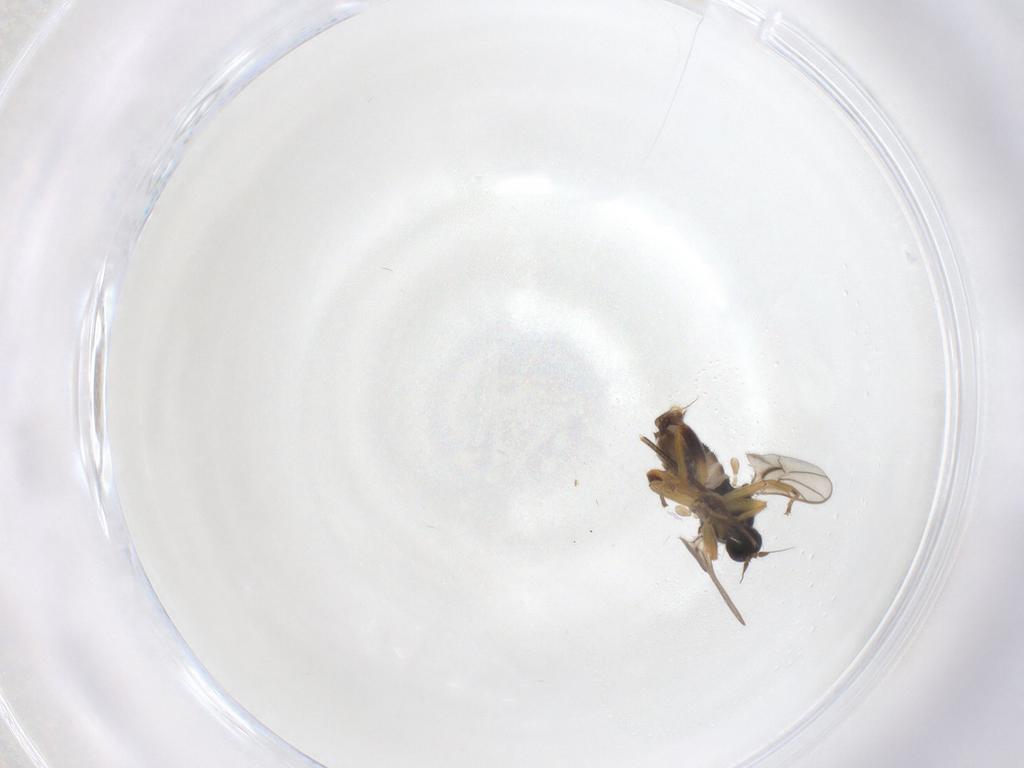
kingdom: Animalia
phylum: Arthropoda
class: Insecta
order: Diptera
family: Hybotidae
